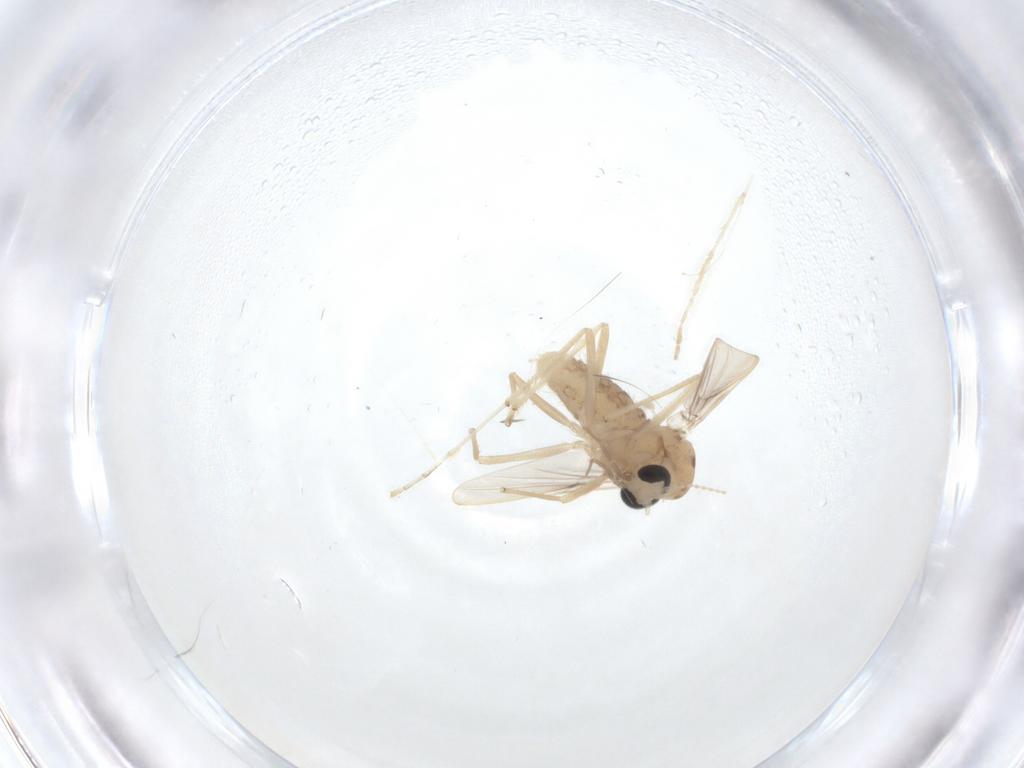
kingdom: Animalia
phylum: Arthropoda
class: Insecta
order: Diptera
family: Chironomidae
